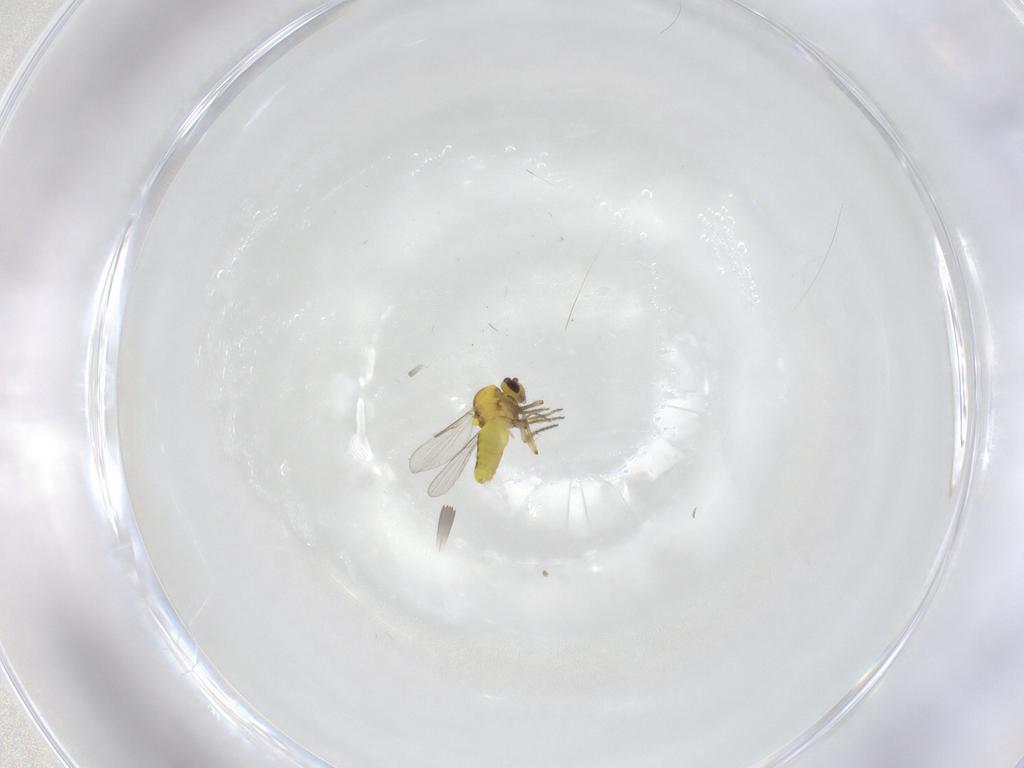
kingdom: Animalia
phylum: Arthropoda
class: Insecta
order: Diptera
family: Ceratopogonidae
